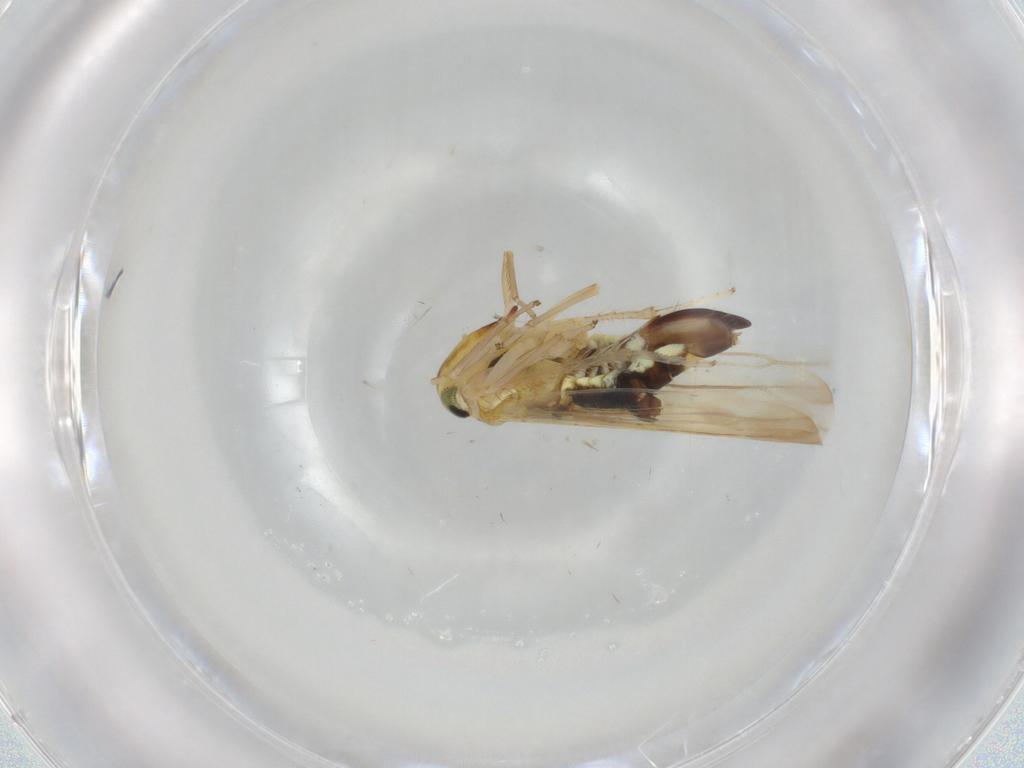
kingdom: Animalia
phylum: Arthropoda
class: Insecta
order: Hemiptera
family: Cicadellidae
